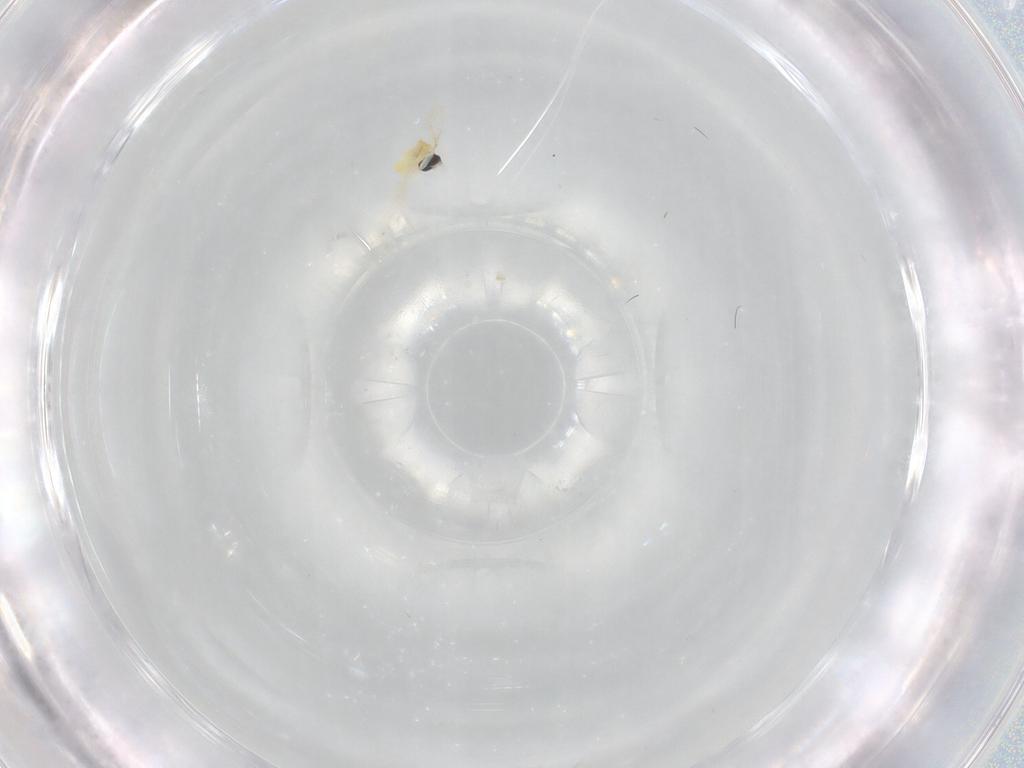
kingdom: Animalia
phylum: Arthropoda
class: Insecta
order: Diptera
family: Cecidomyiidae
